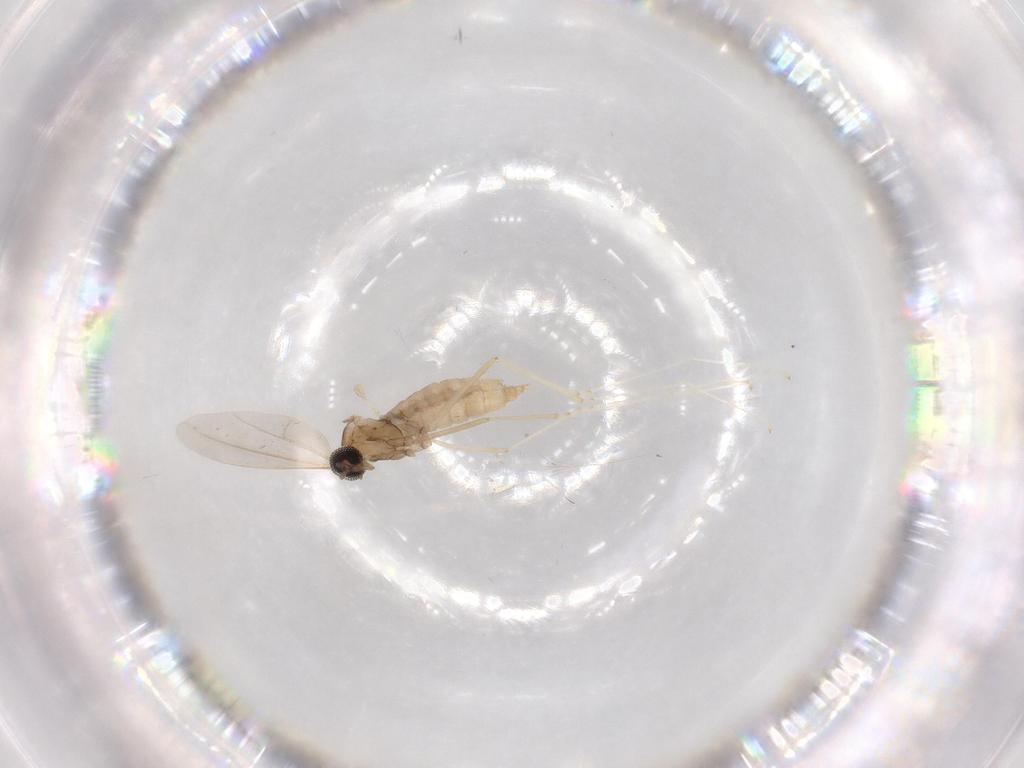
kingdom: Animalia
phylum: Arthropoda
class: Insecta
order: Diptera
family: Cecidomyiidae
